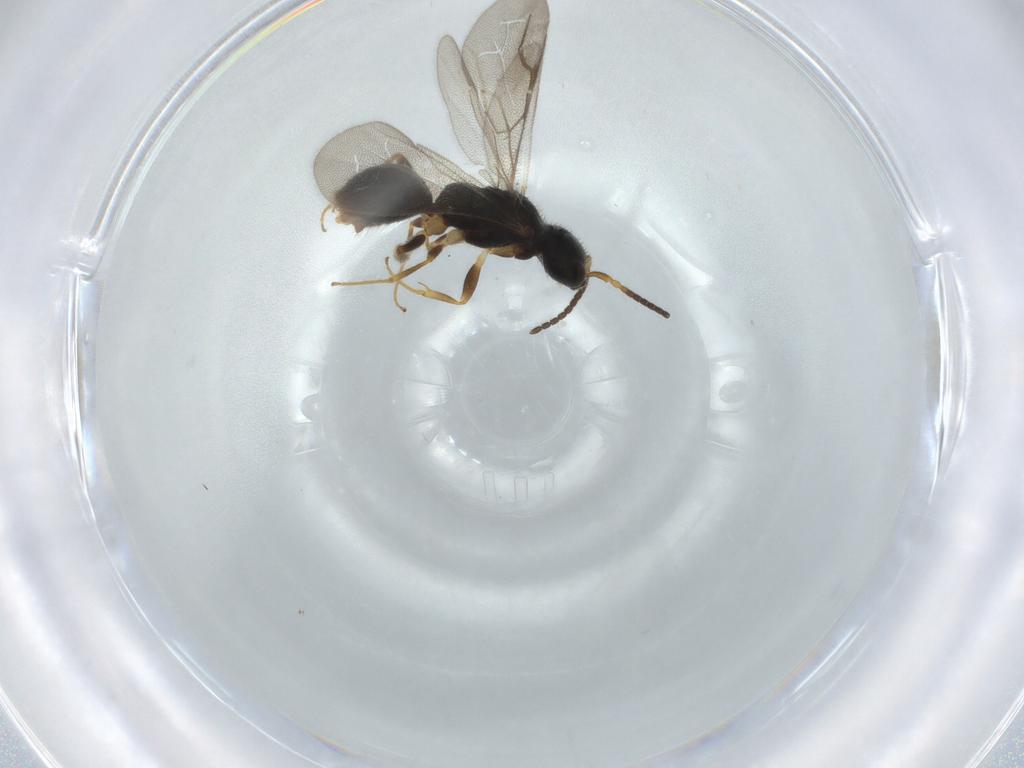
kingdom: Animalia
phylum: Arthropoda
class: Insecta
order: Hymenoptera
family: Bethylidae
